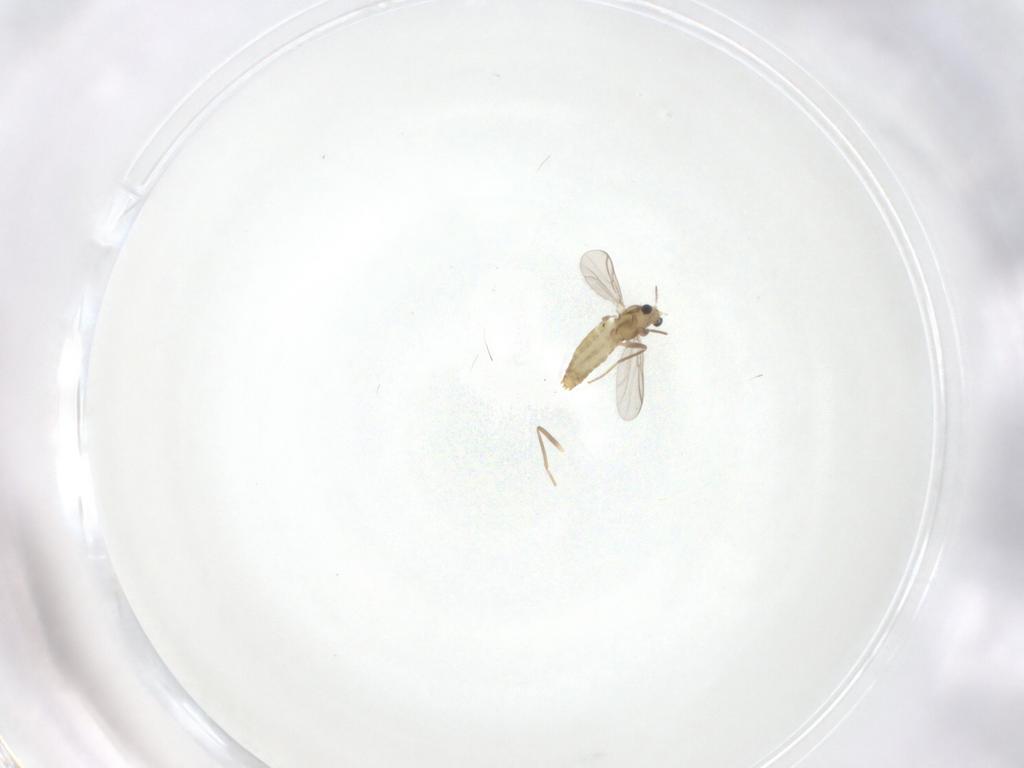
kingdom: Animalia
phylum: Arthropoda
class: Insecta
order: Diptera
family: Chironomidae
